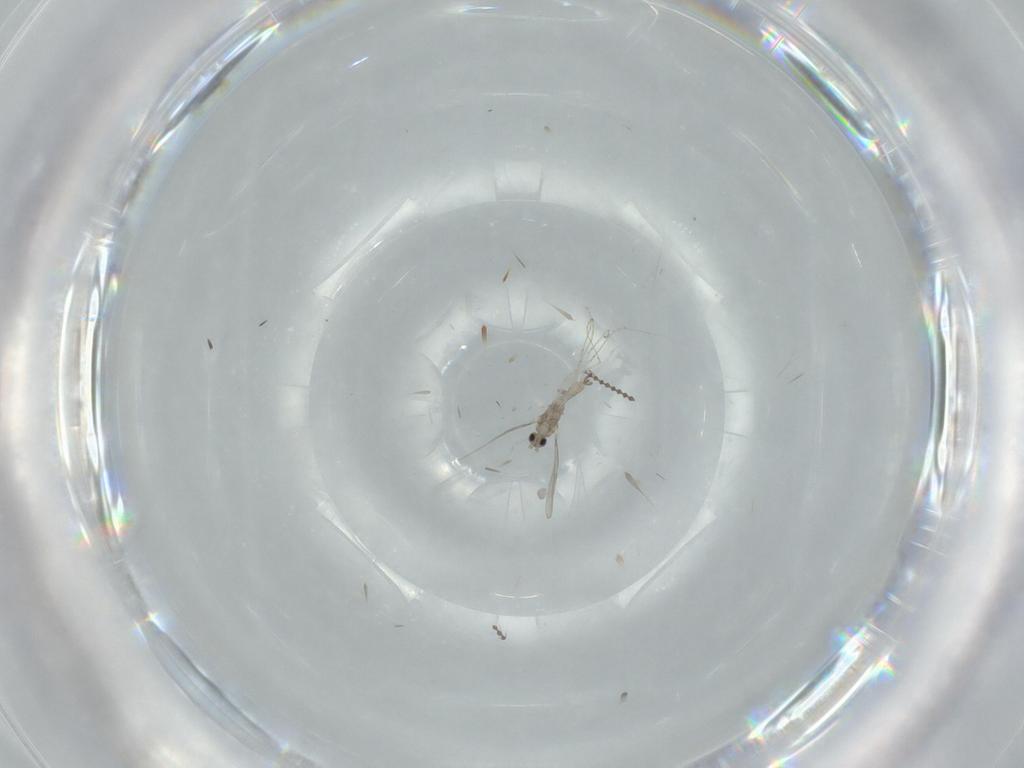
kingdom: Animalia
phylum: Arthropoda
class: Insecta
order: Diptera
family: Cecidomyiidae
